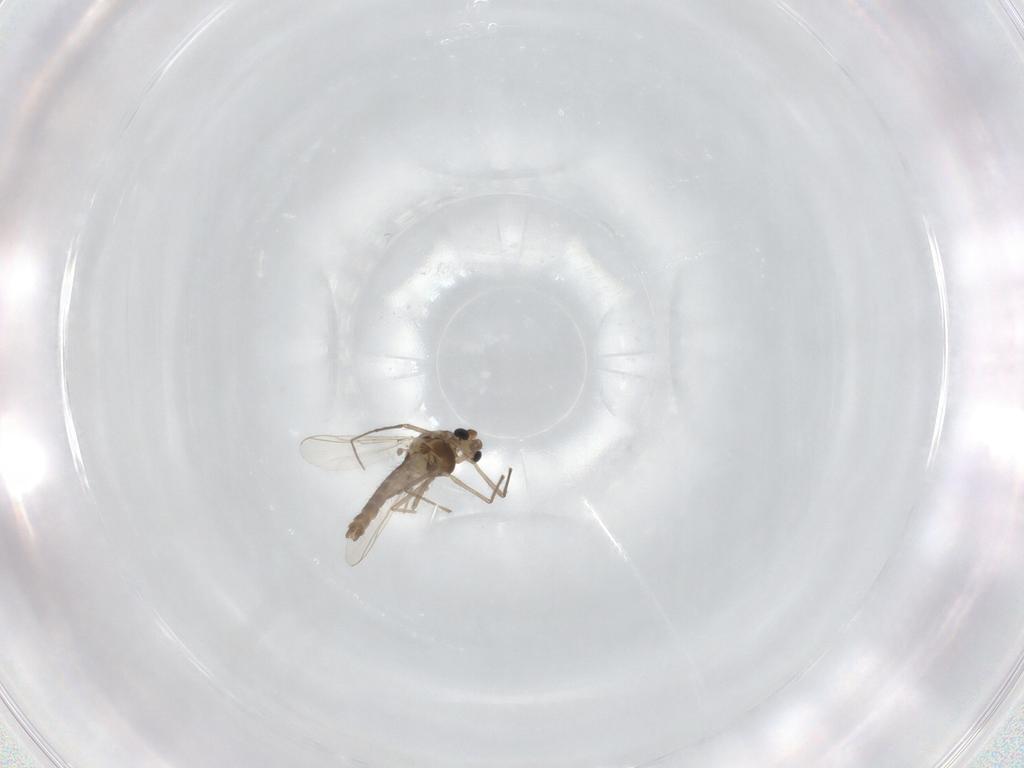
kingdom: Animalia
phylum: Arthropoda
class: Insecta
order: Diptera
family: Chironomidae
